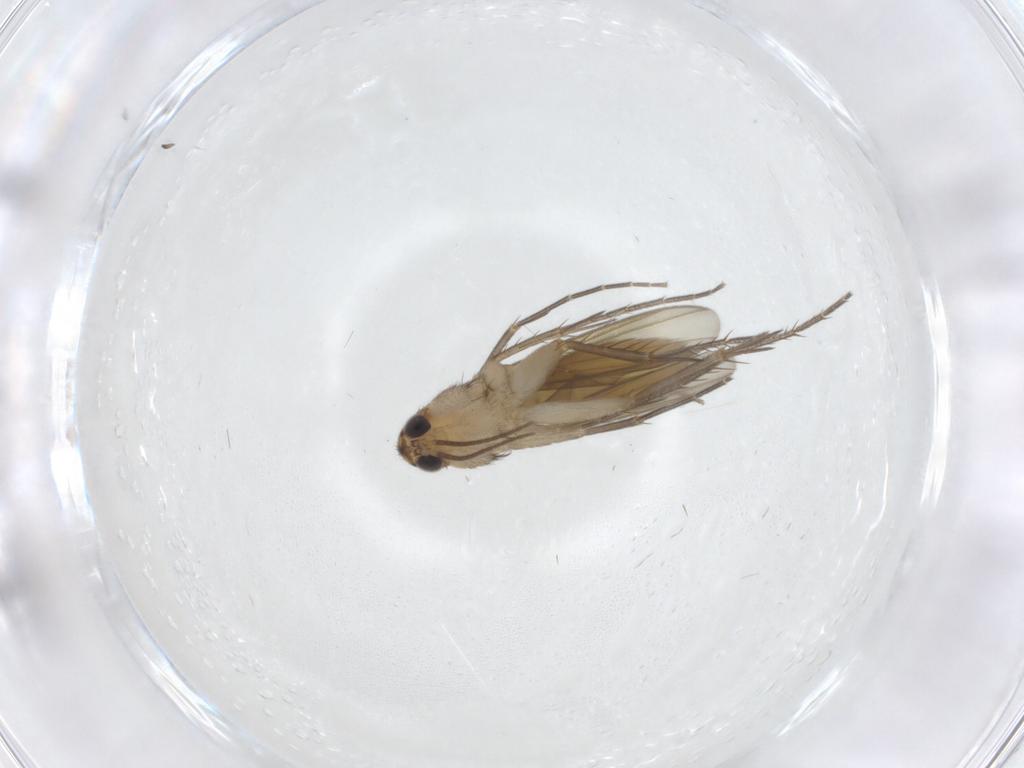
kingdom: Animalia
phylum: Arthropoda
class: Insecta
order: Diptera
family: Mycetophilidae
